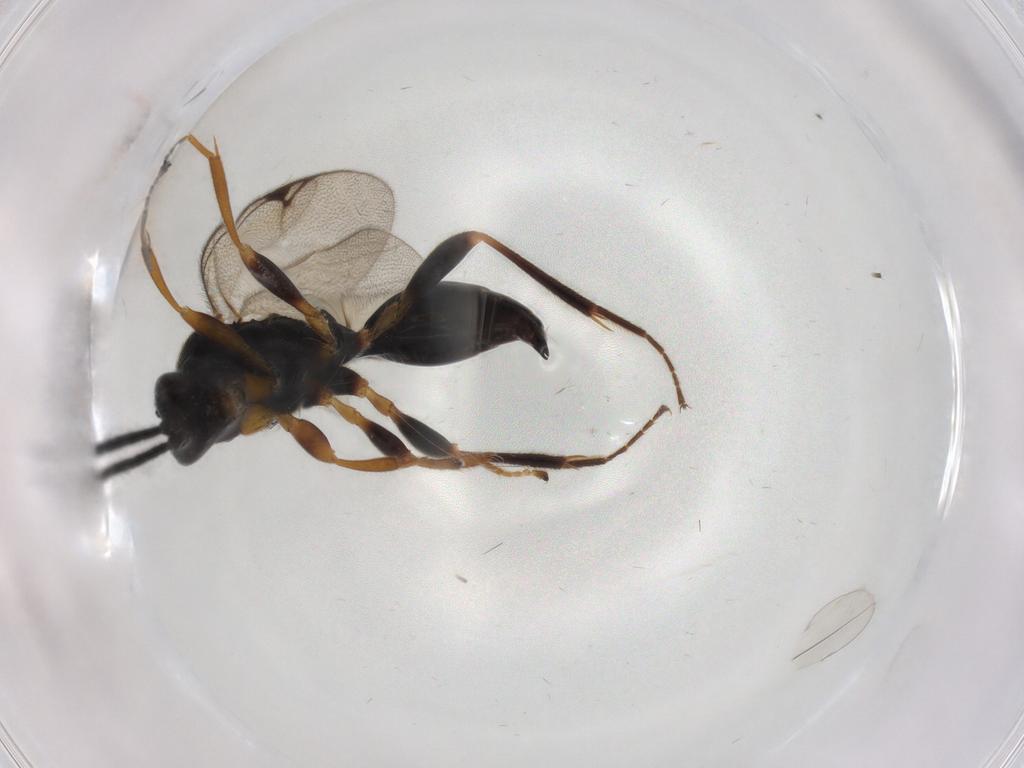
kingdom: Animalia
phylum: Arthropoda
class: Insecta
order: Hymenoptera
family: Proctotrupidae
